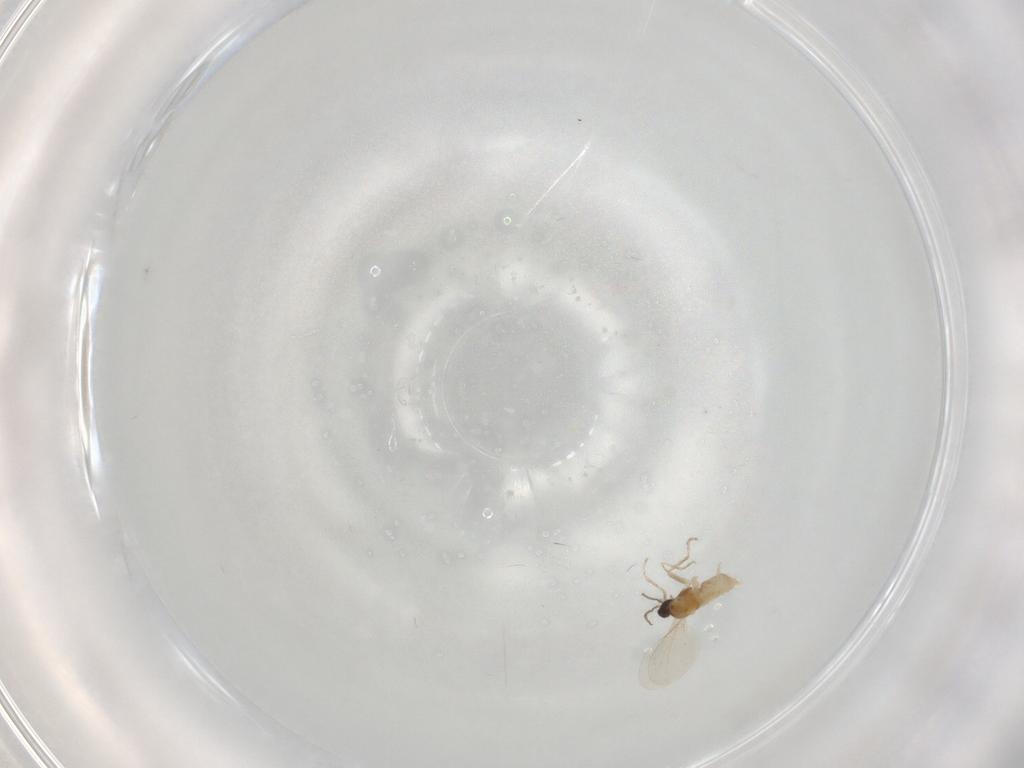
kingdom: Animalia
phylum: Arthropoda
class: Insecta
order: Diptera
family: Cecidomyiidae
